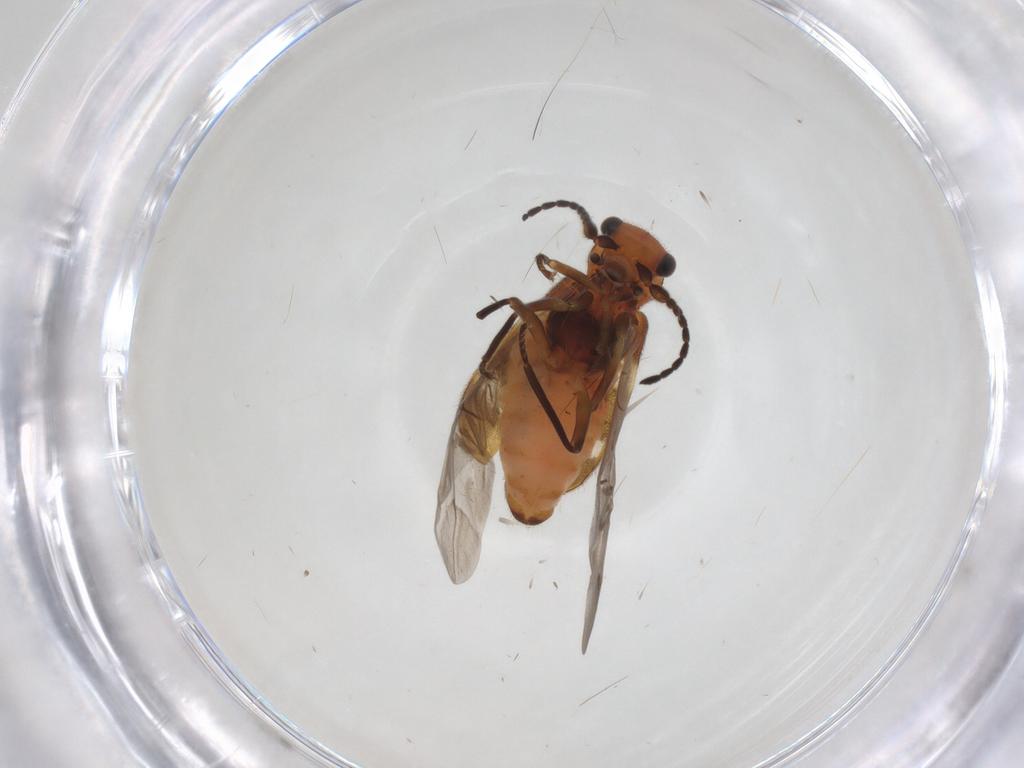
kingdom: Animalia
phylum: Arthropoda
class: Insecta
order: Coleoptera
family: Melyridae
